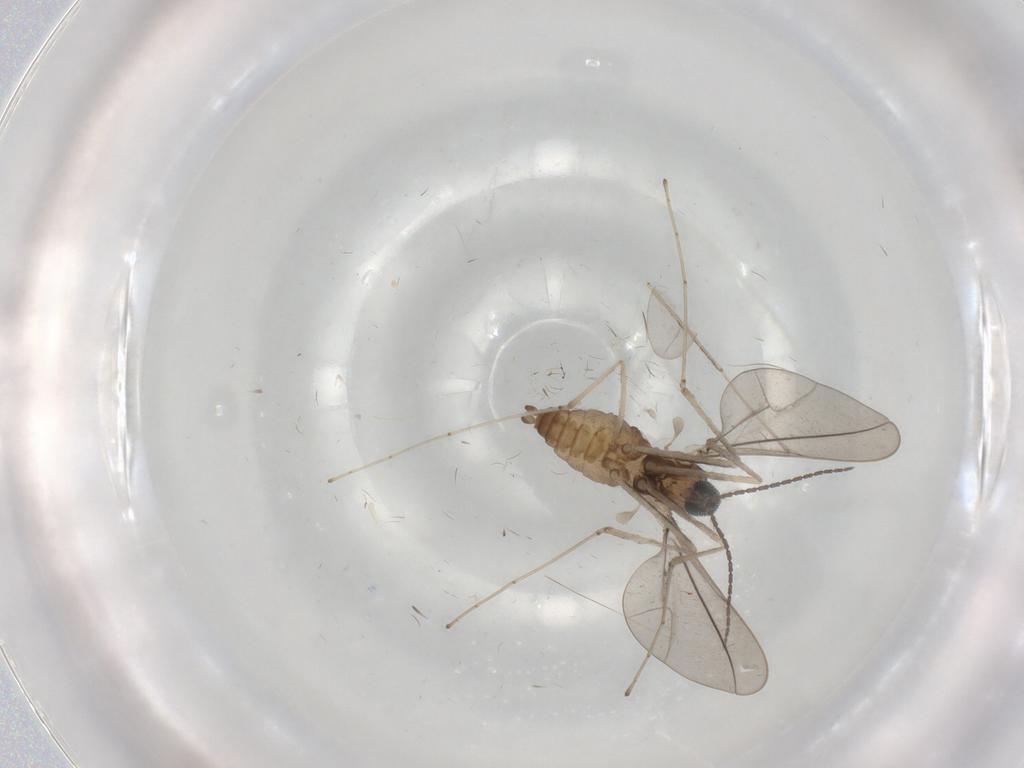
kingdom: Animalia
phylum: Arthropoda
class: Insecta
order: Diptera
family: Cecidomyiidae
